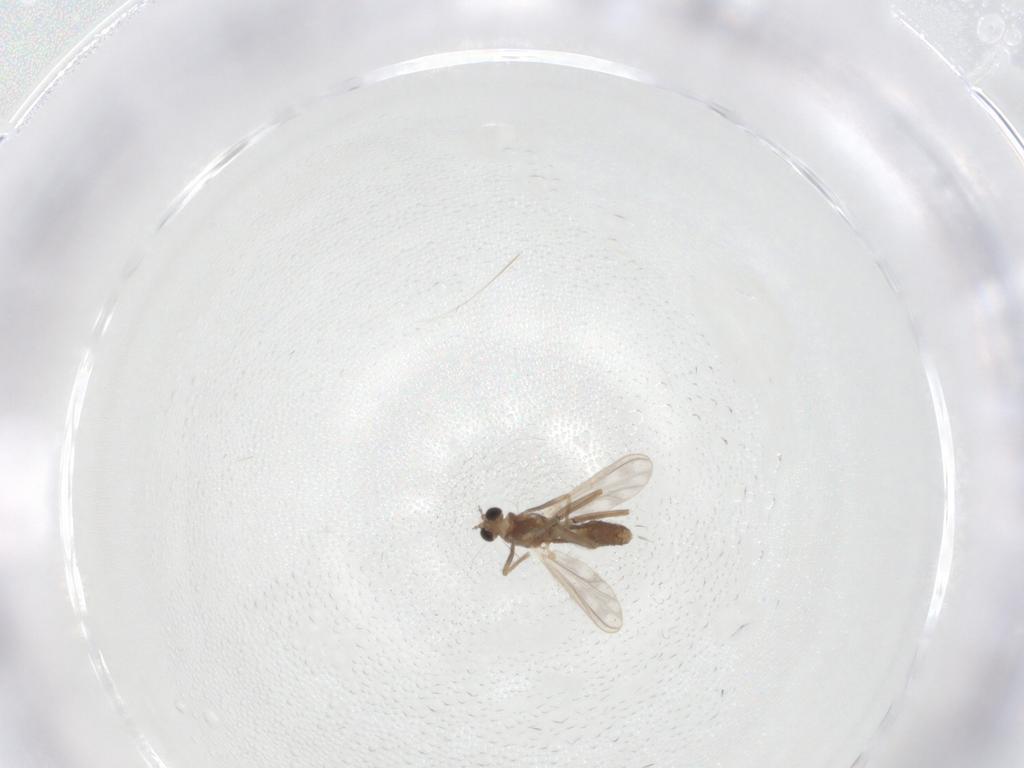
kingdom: Animalia
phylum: Arthropoda
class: Insecta
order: Diptera
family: Chironomidae
